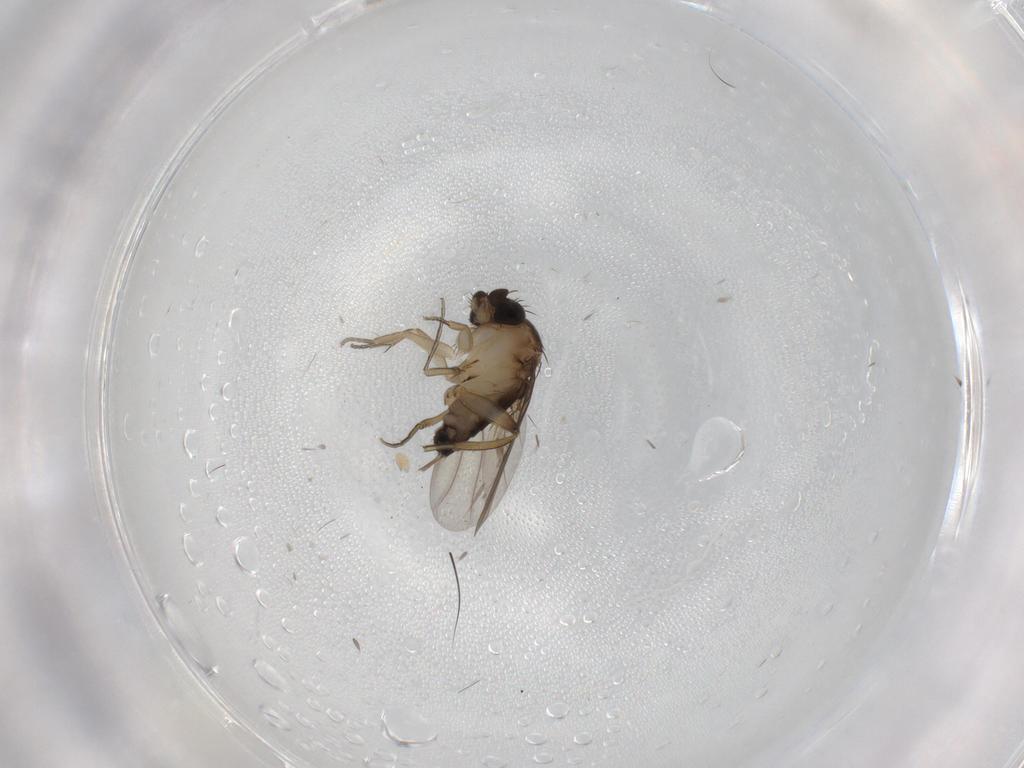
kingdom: Animalia
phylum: Arthropoda
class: Insecta
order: Diptera
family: Phoridae
